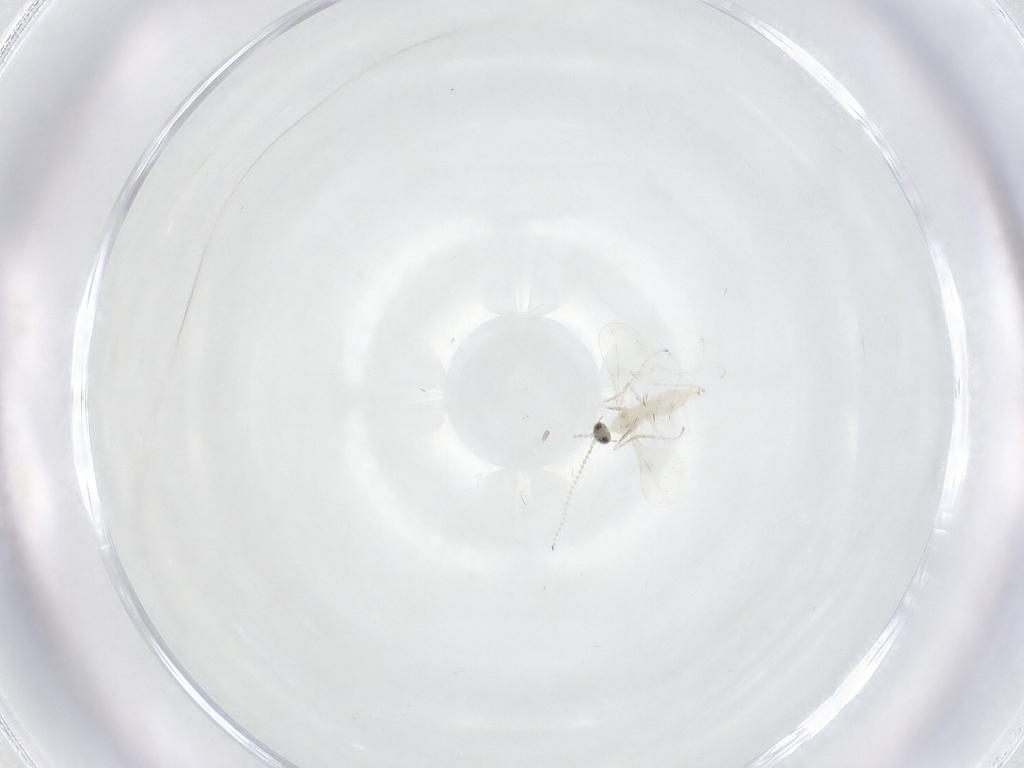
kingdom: Animalia
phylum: Arthropoda
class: Insecta
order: Diptera
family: Cecidomyiidae
